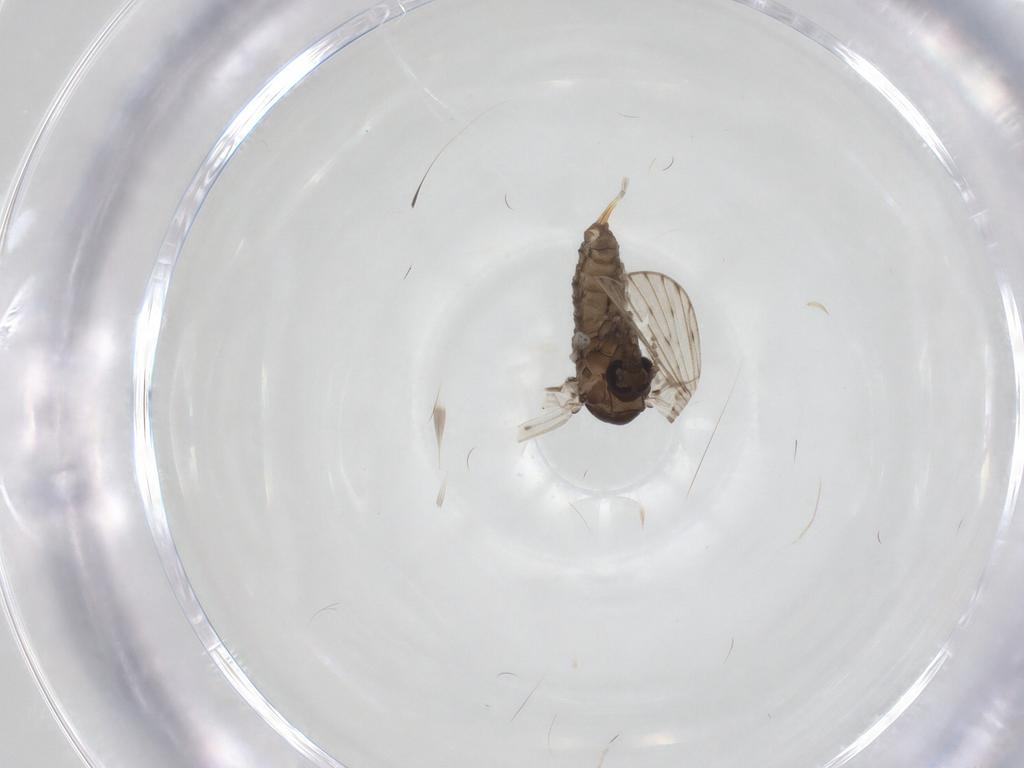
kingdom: Animalia
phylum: Arthropoda
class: Insecta
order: Diptera
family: Psychodidae
